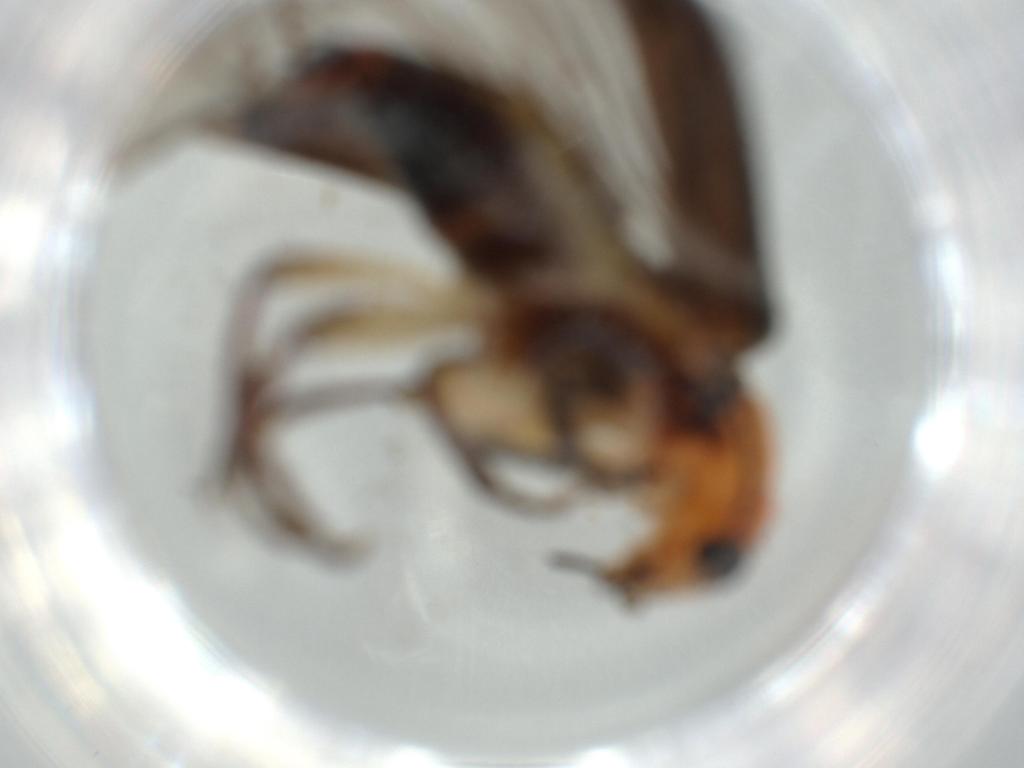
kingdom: Animalia
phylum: Arthropoda
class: Insecta
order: Coleoptera
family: Cleridae
